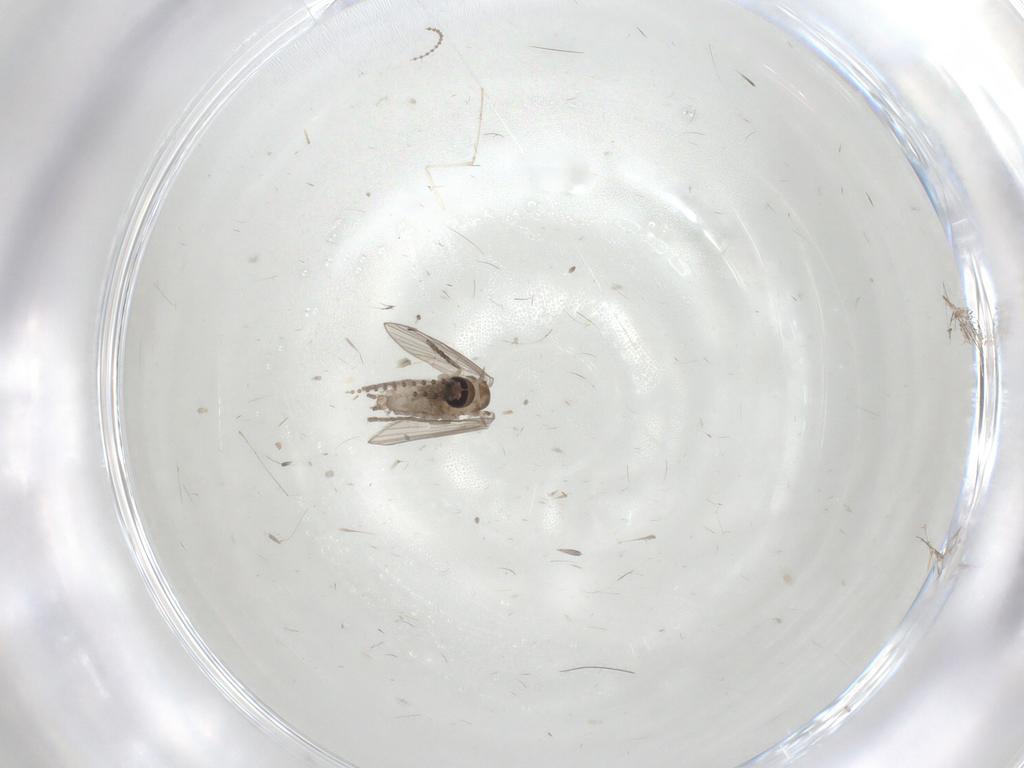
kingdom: Animalia
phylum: Arthropoda
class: Insecta
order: Diptera
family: Psychodidae
